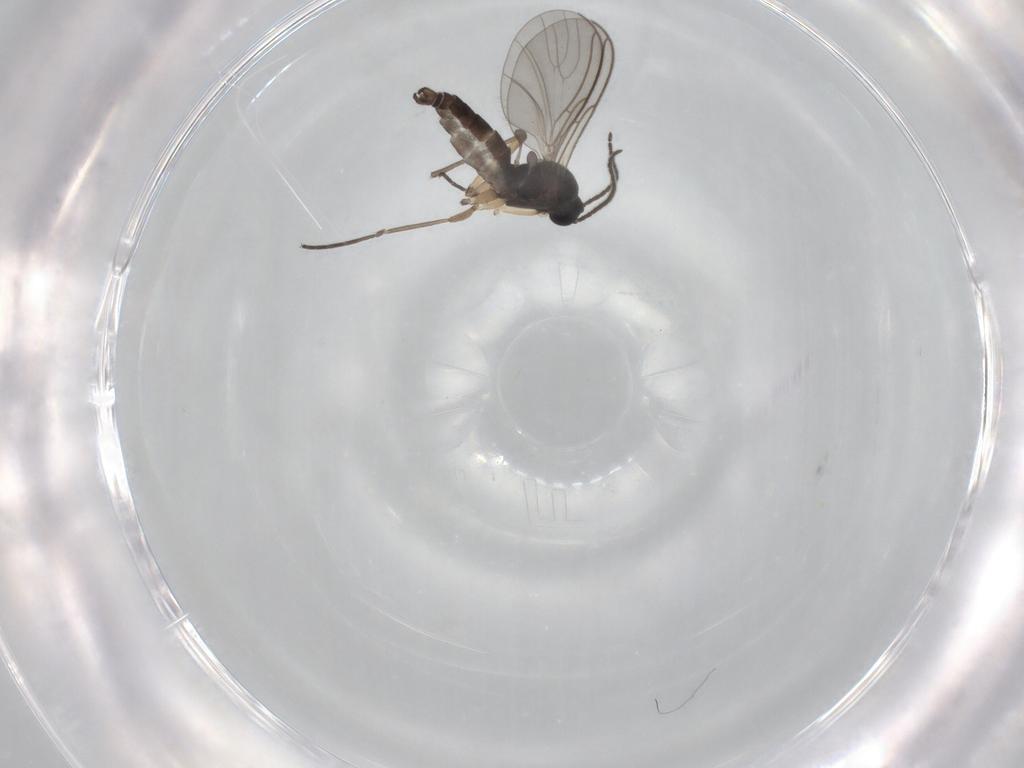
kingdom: Animalia
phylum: Arthropoda
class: Insecta
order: Diptera
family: Sciaridae
